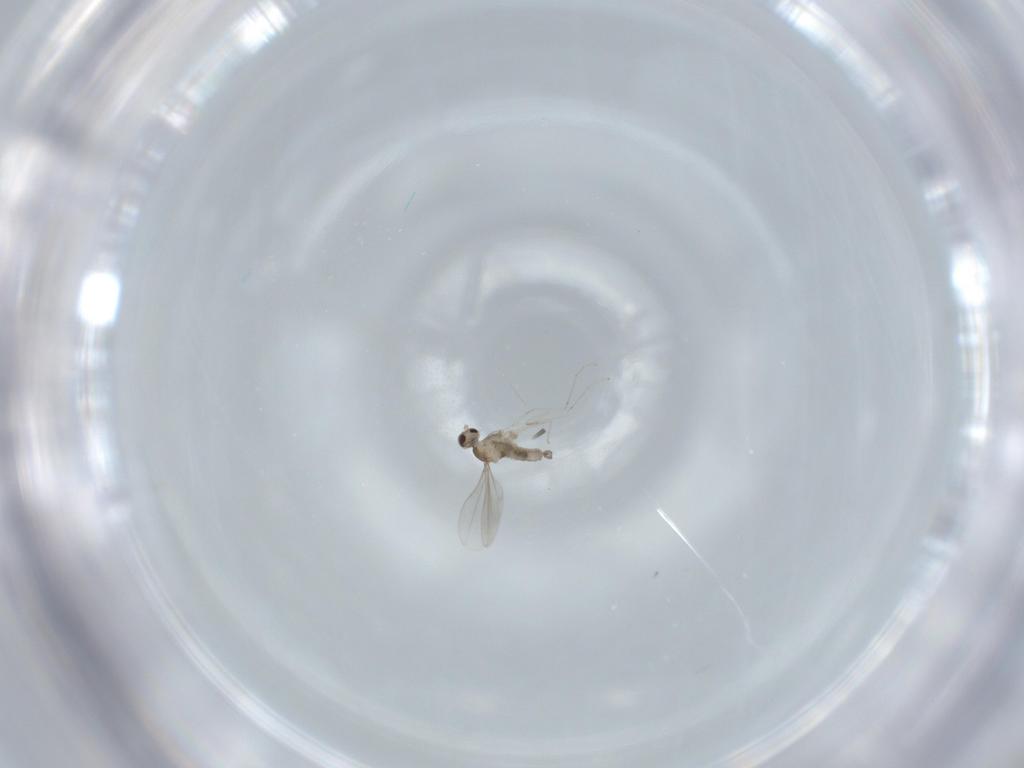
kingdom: Animalia
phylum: Arthropoda
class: Insecta
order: Diptera
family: Cecidomyiidae
